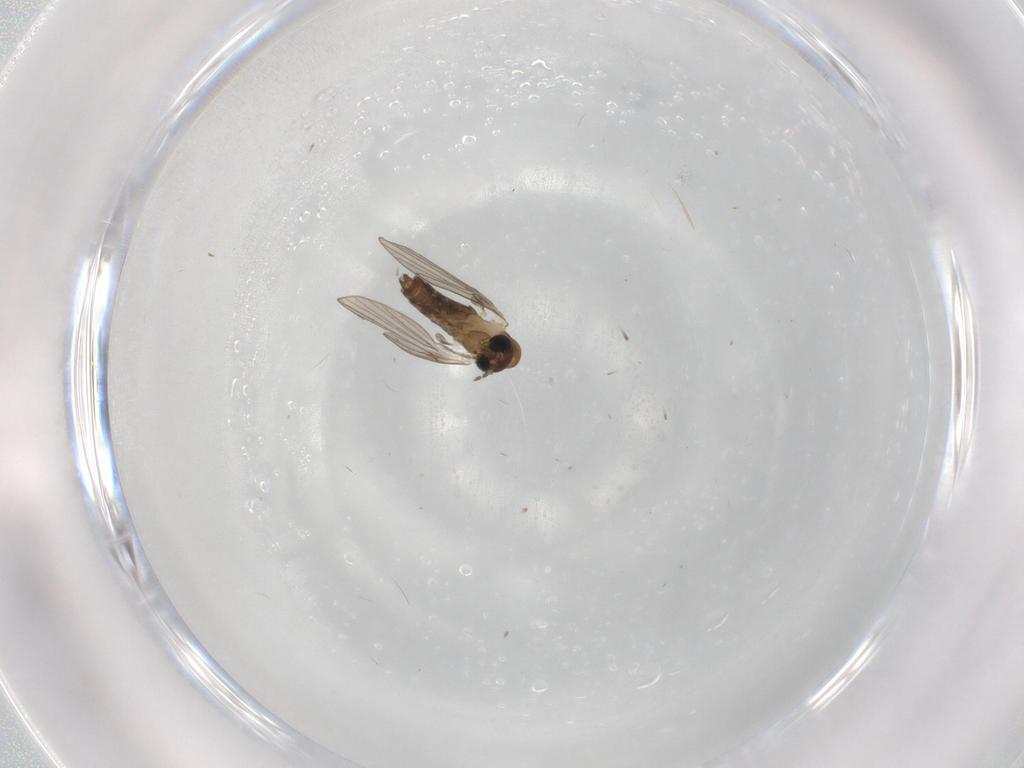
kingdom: Animalia
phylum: Arthropoda
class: Insecta
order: Diptera
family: Psychodidae
